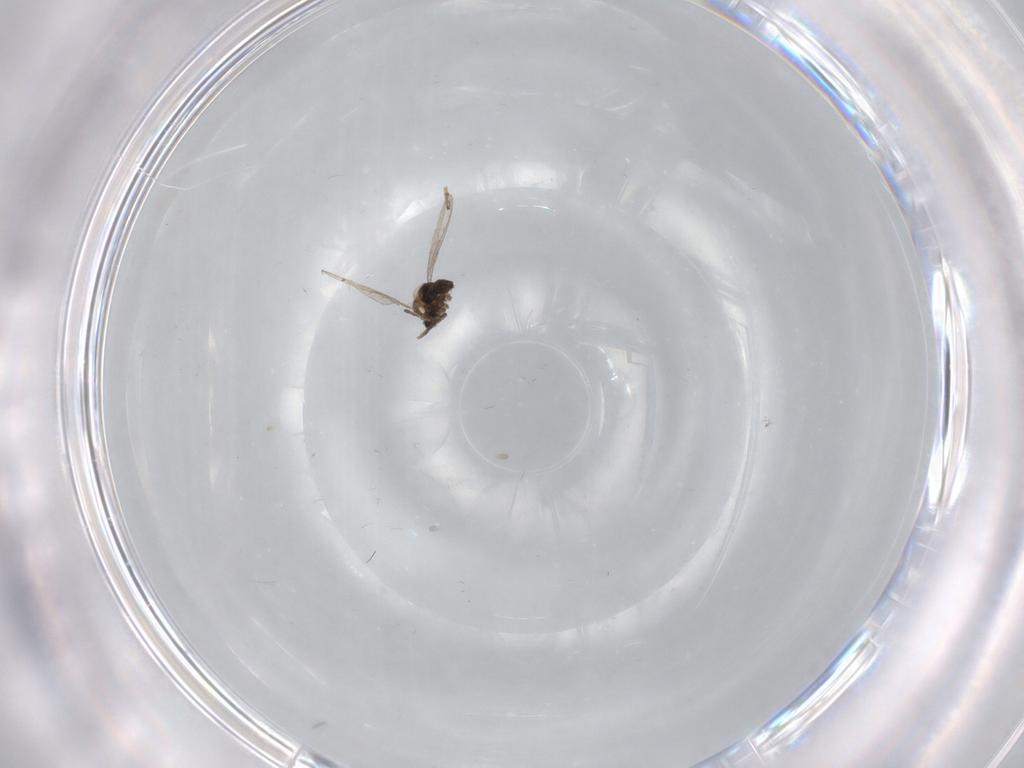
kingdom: Animalia
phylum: Arthropoda
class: Insecta
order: Diptera
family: Cecidomyiidae
